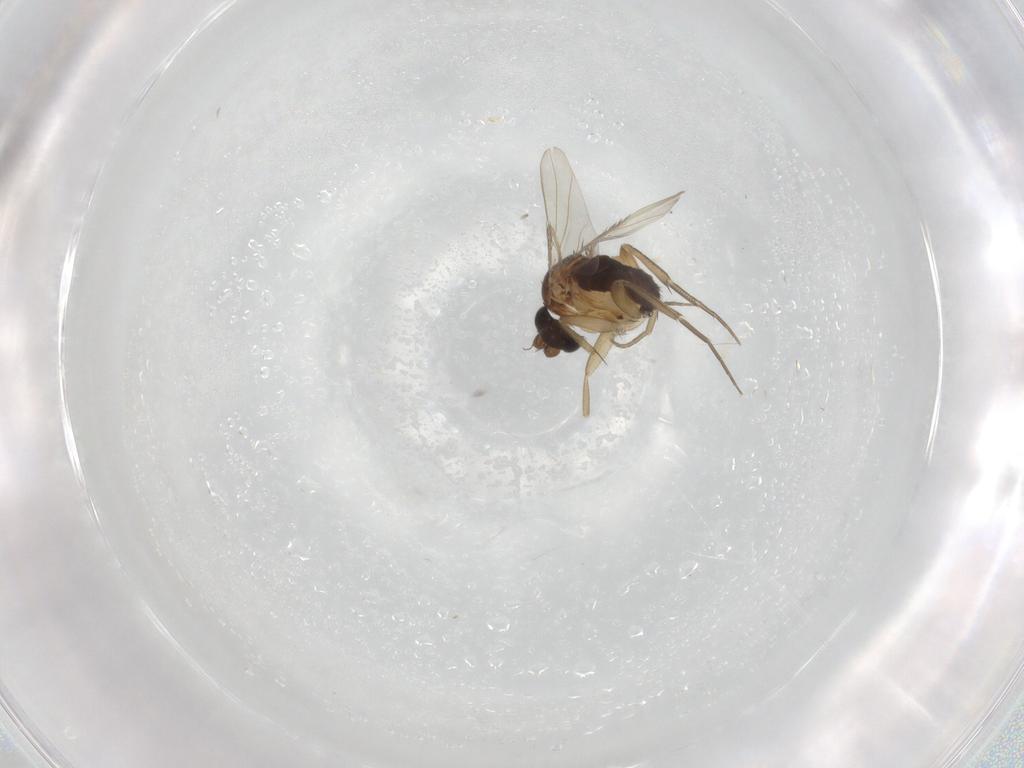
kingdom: Animalia
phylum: Arthropoda
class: Insecta
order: Diptera
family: Phoridae
